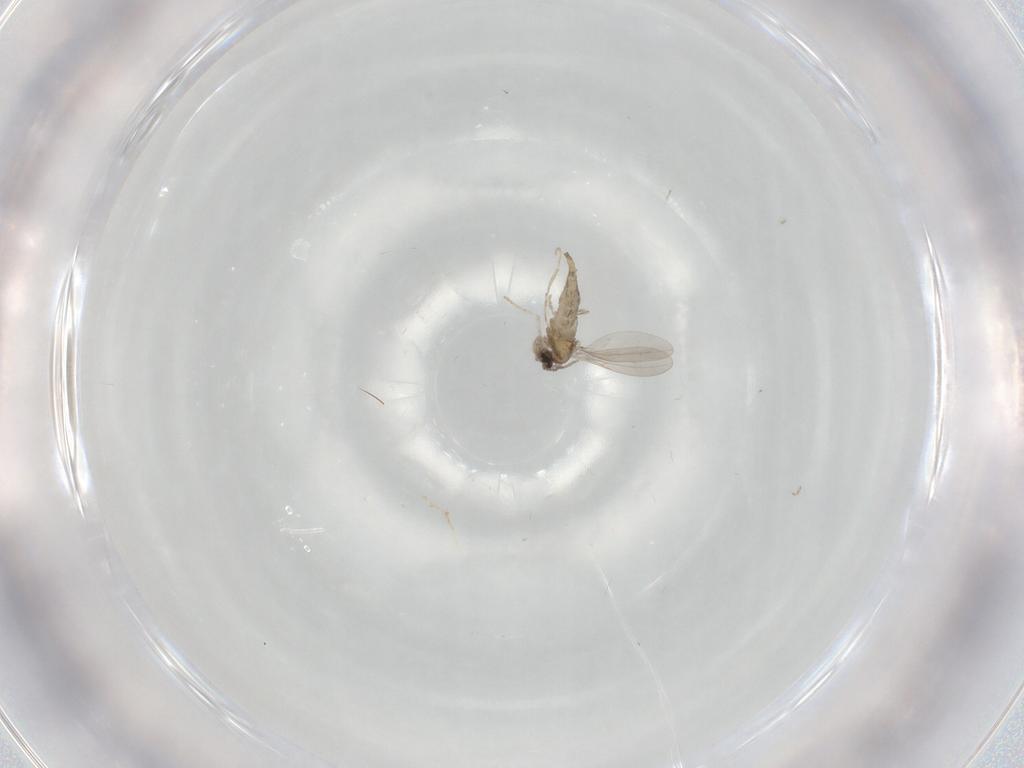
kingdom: Animalia
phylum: Arthropoda
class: Insecta
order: Diptera
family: Cecidomyiidae
